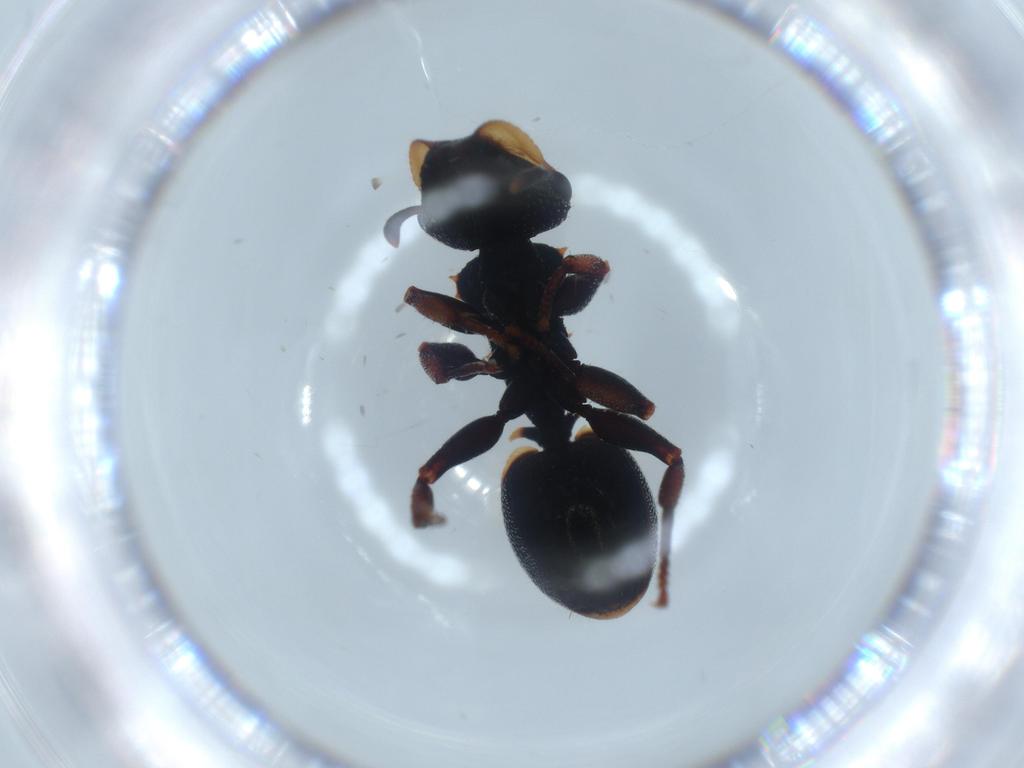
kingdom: Animalia
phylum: Arthropoda
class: Insecta
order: Hymenoptera
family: Formicidae
